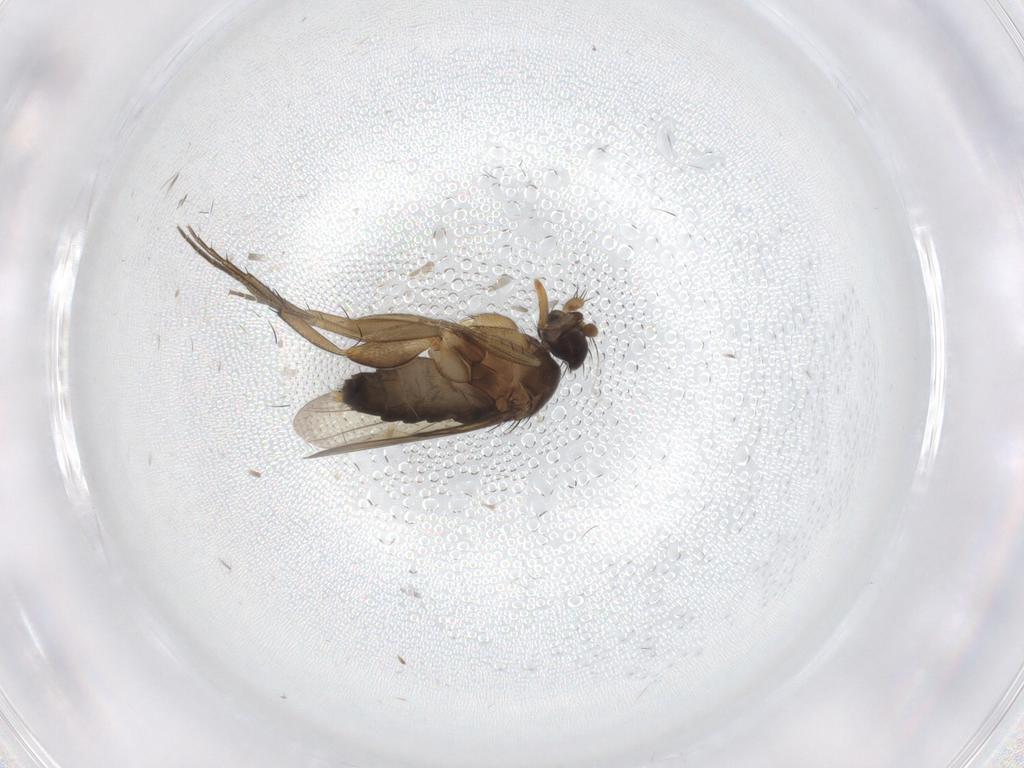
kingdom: Animalia
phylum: Arthropoda
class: Insecta
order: Diptera
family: Phoridae
